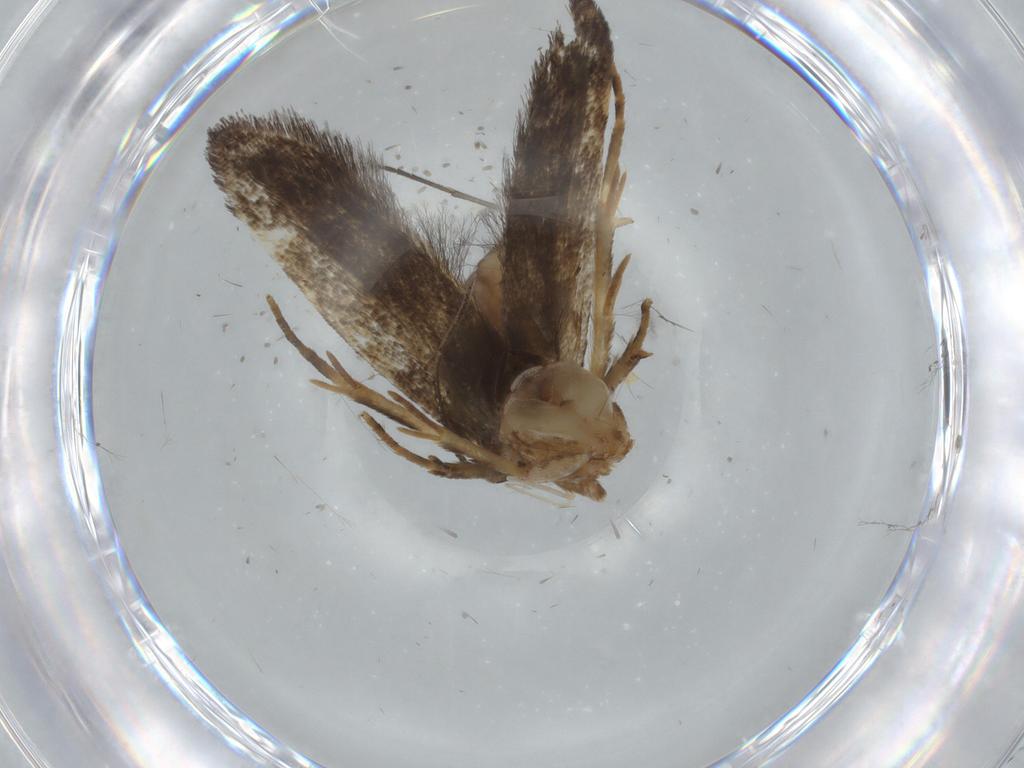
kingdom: Animalia
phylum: Arthropoda
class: Insecta
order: Lepidoptera
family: Cosmopterigidae
